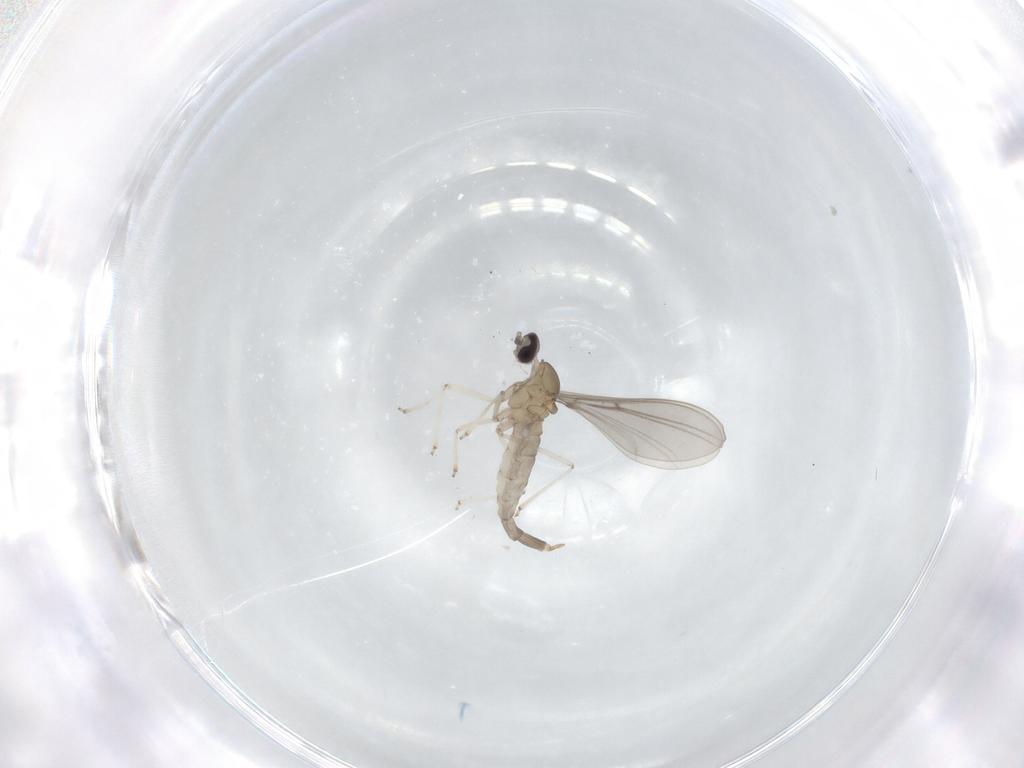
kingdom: Animalia
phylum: Arthropoda
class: Insecta
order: Diptera
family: Cecidomyiidae
